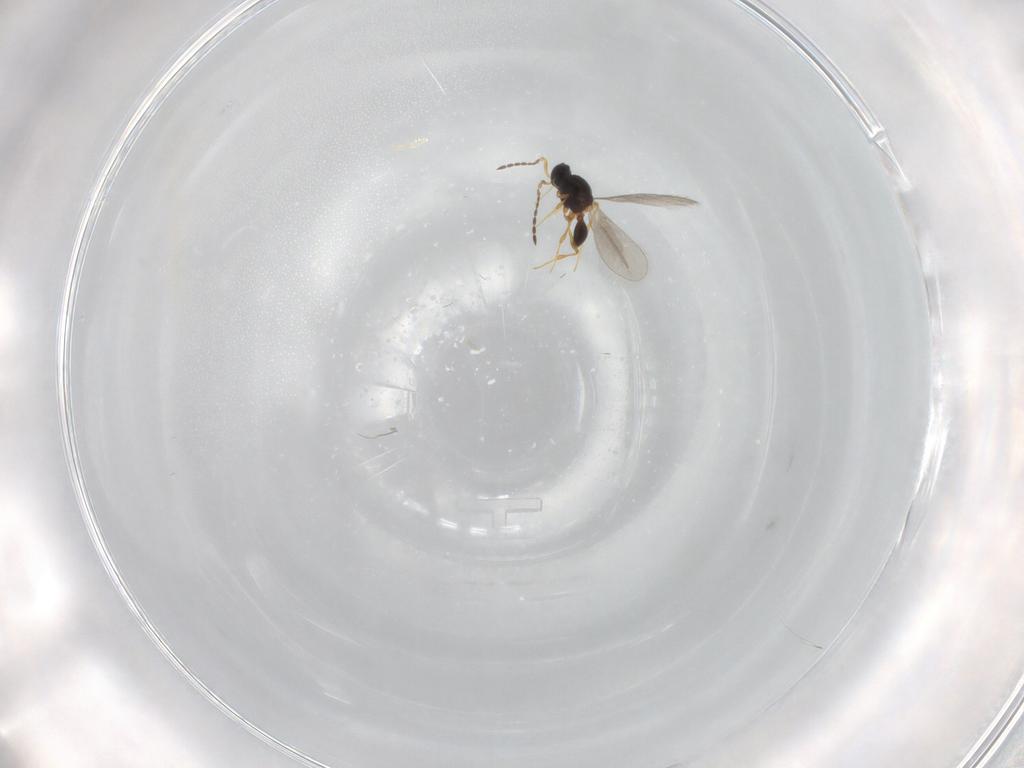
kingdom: Animalia
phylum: Arthropoda
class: Insecta
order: Hymenoptera
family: Platygastridae
